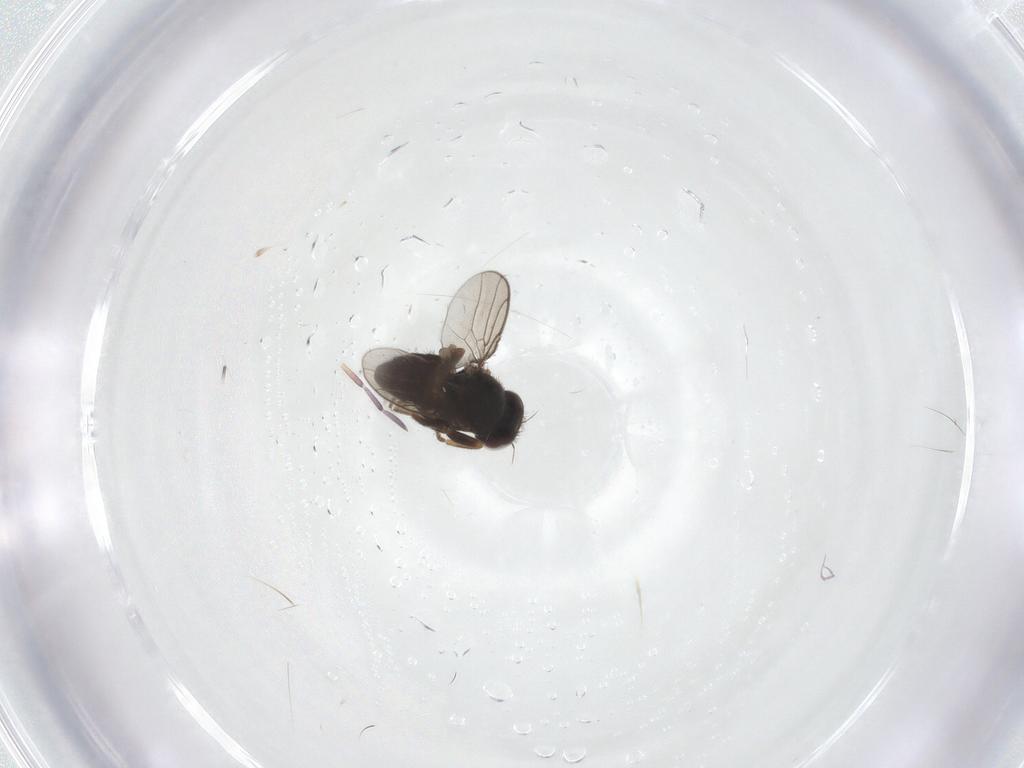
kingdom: Animalia
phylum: Arthropoda
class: Insecta
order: Diptera
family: Chloropidae
